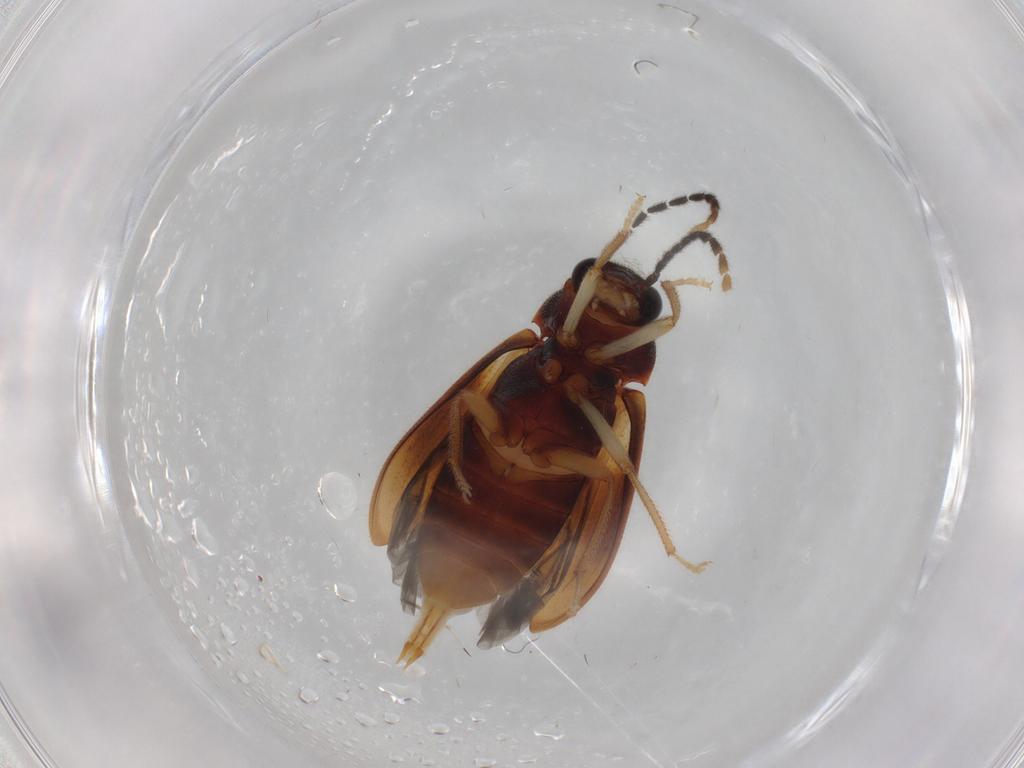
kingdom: Animalia
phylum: Arthropoda
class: Insecta
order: Coleoptera
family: Ptilodactylidae
